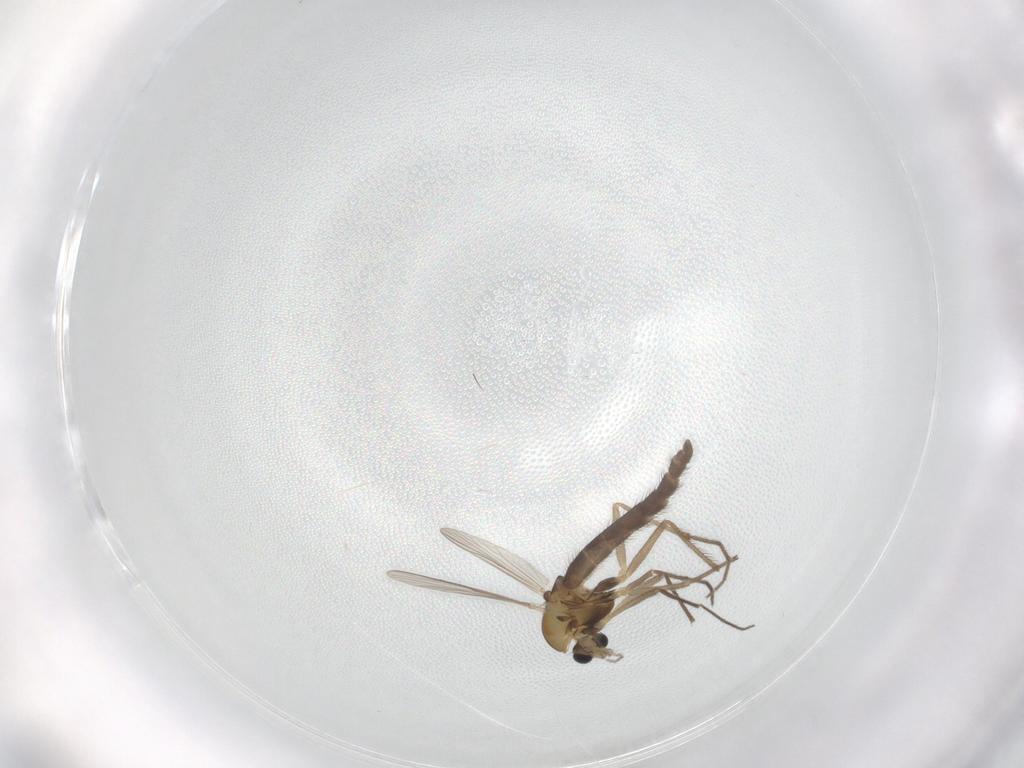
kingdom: Animalia
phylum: Arthropoda
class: Insecta
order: Diptera
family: Chironomidae
